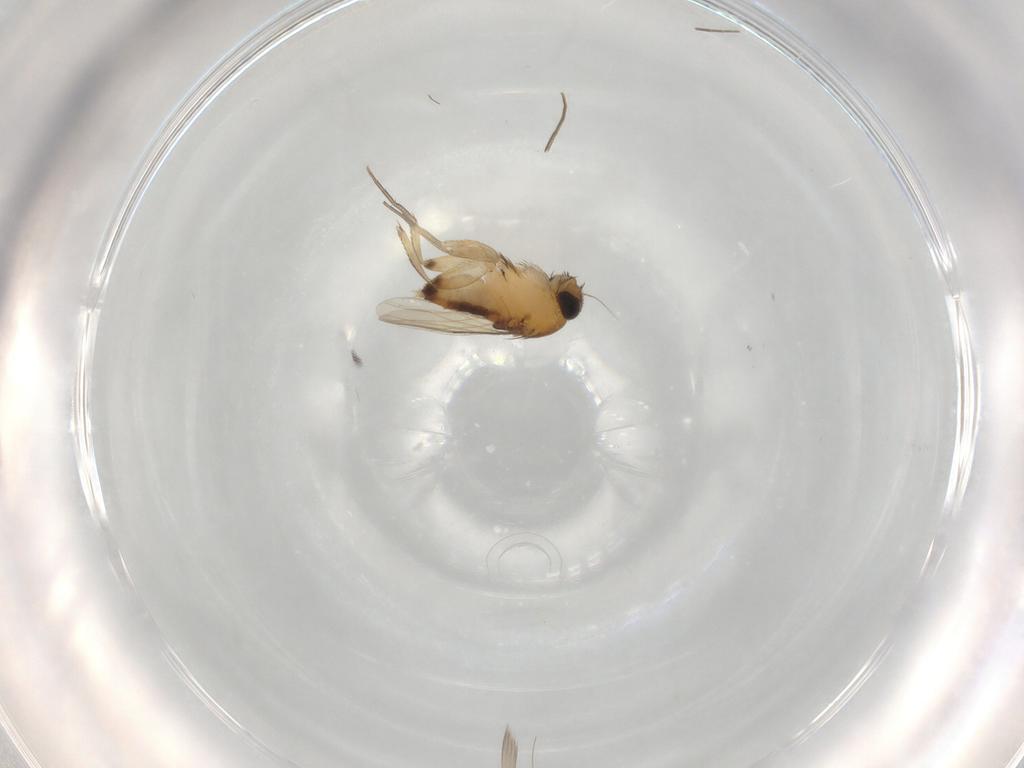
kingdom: Animalia
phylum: Arthropoda
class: Insecta
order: Diptera
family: Phoridae
